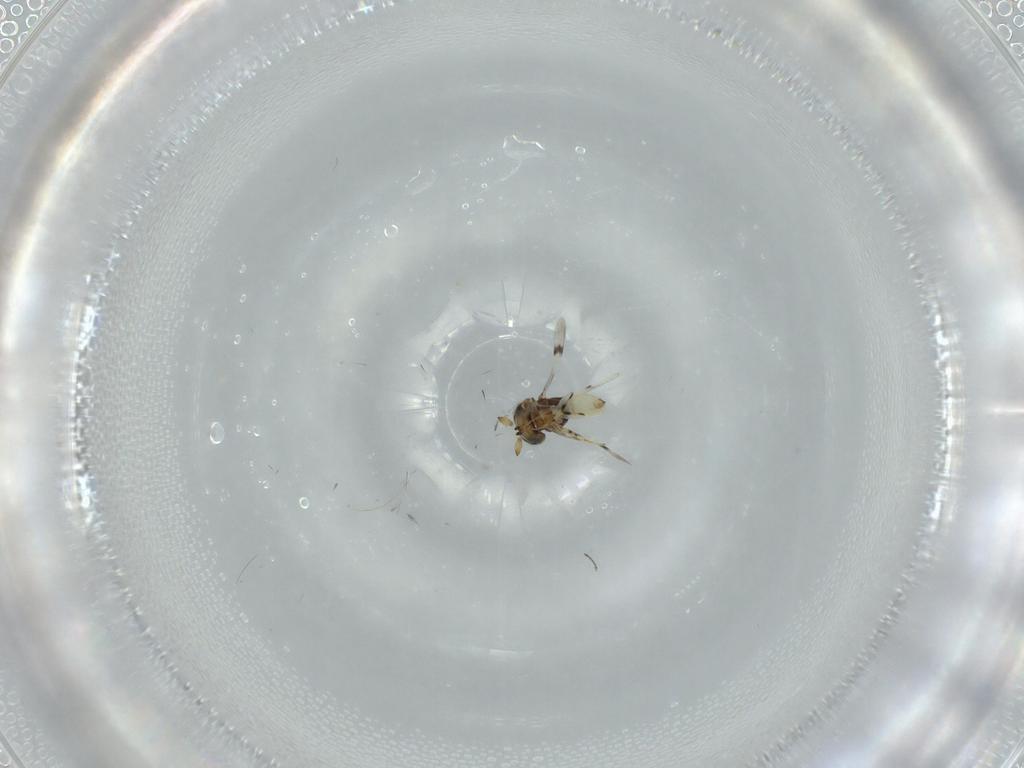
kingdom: Animalia
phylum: Arthropoda
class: Insecta
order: Hymenoptera
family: Scelionidae
